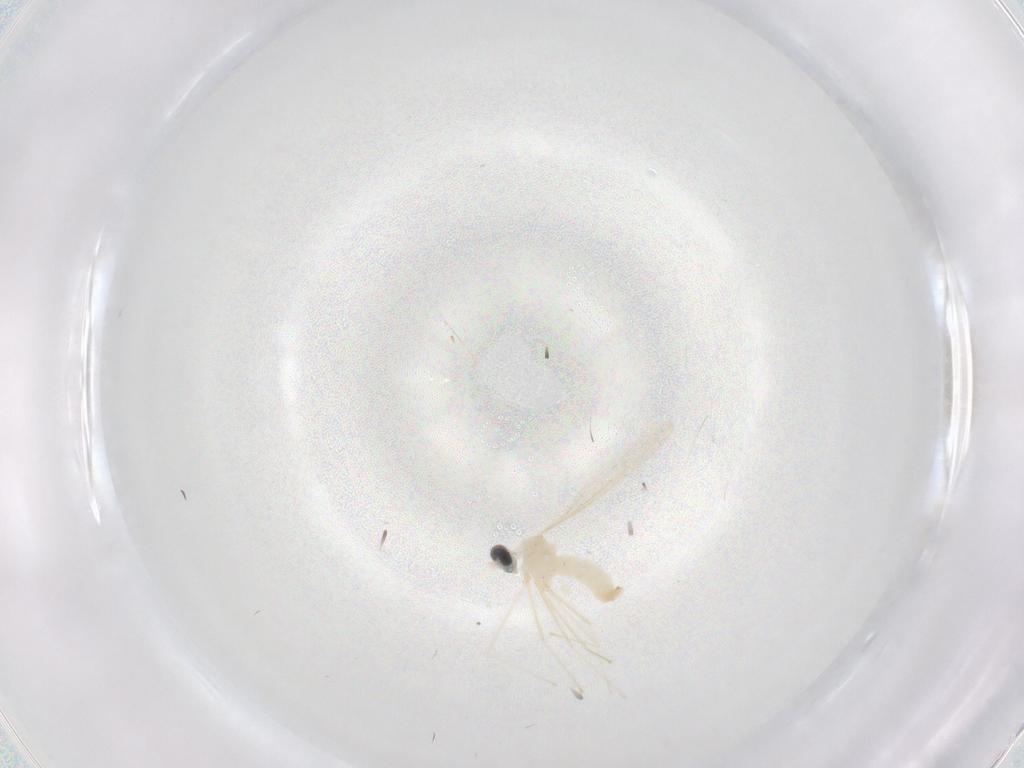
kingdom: Animalia
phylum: Arthropoda
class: Insecta
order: Diptera
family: Cecidomyiidae
